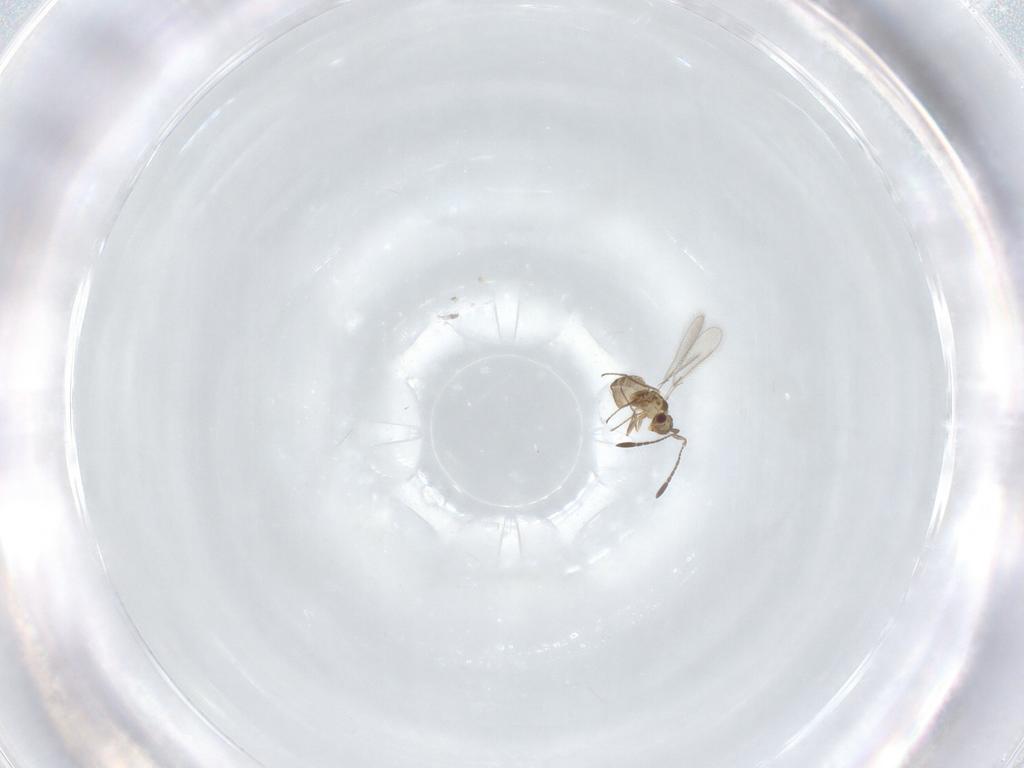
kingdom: Animalia
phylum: Arthropoda
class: Insecta
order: Hymenoptera
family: Mymaridae
